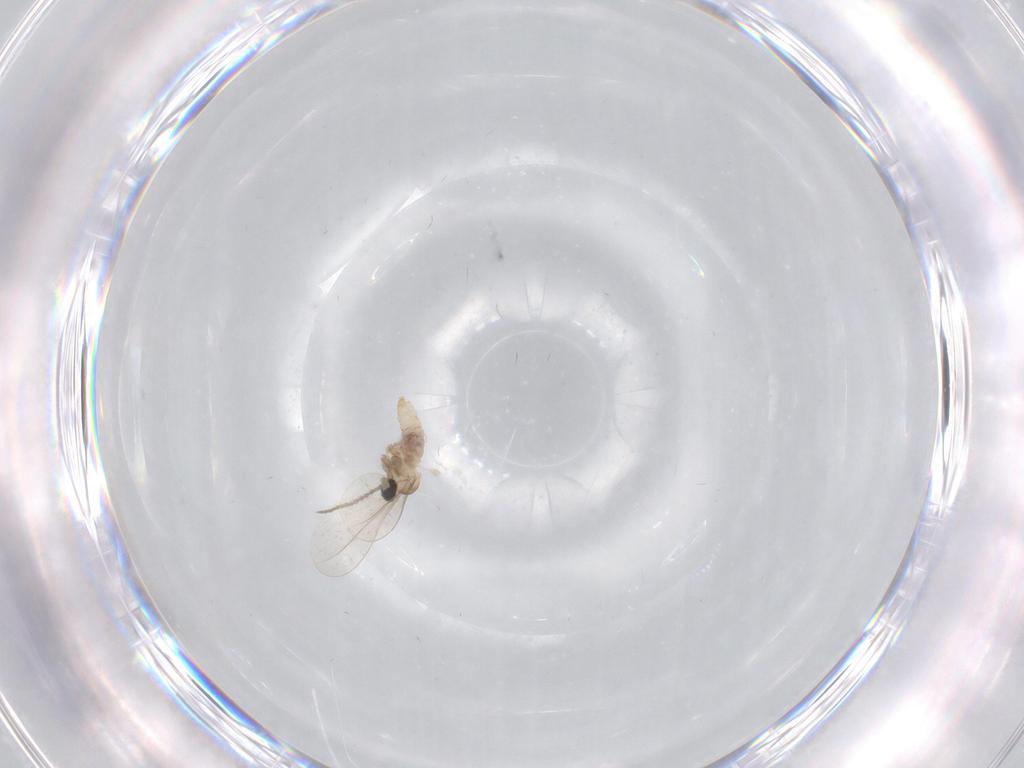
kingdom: Animalia
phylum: Arthropoda
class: Insecta
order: Diptera
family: Cecidomyiidae
